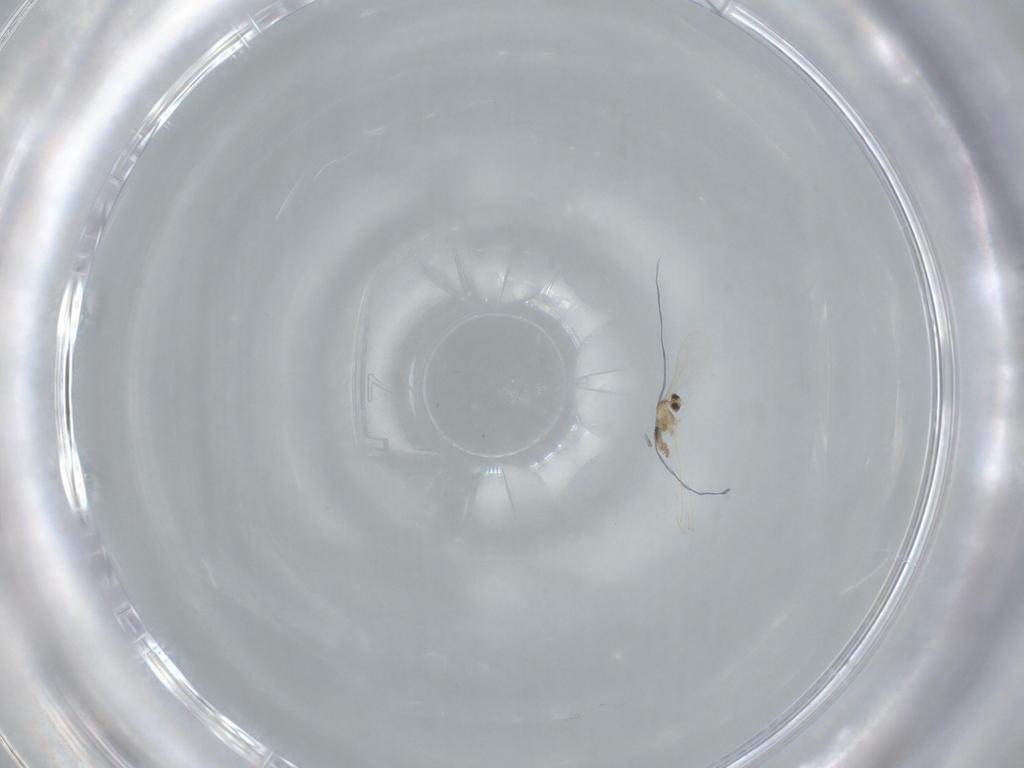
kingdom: Animalia
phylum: Arthropoda
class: Insecta
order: Diptera
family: Cecidomyiidae
